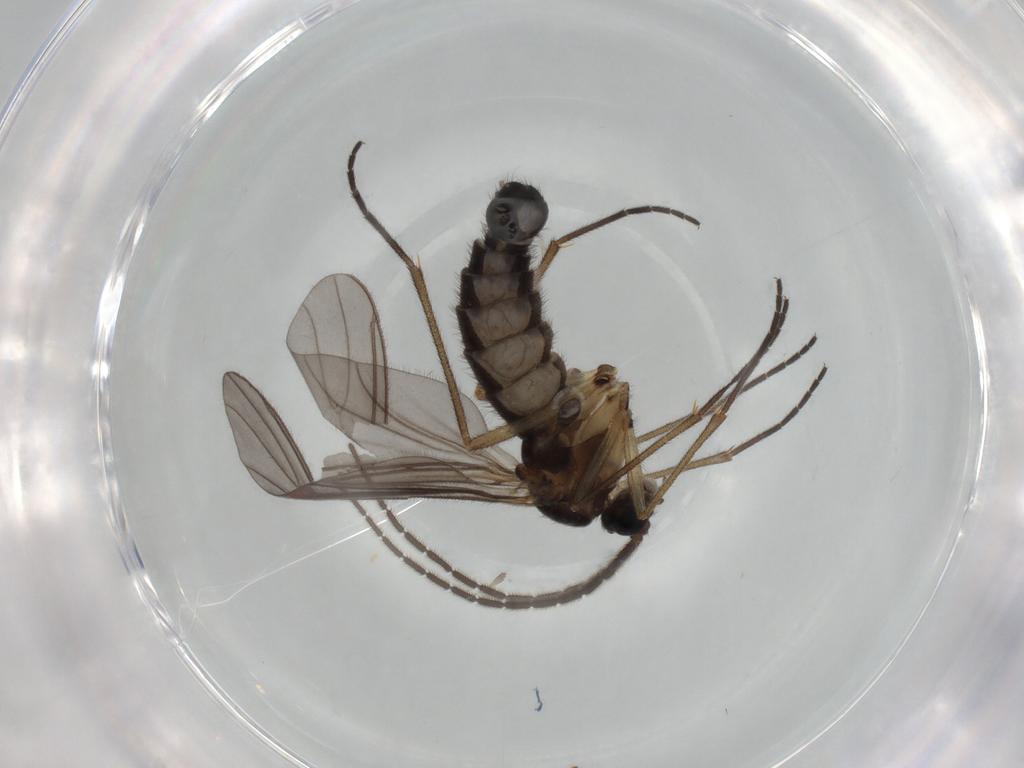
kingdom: Animalia
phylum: Arthropoda
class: Insecta
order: Diptera
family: Sciaridae
